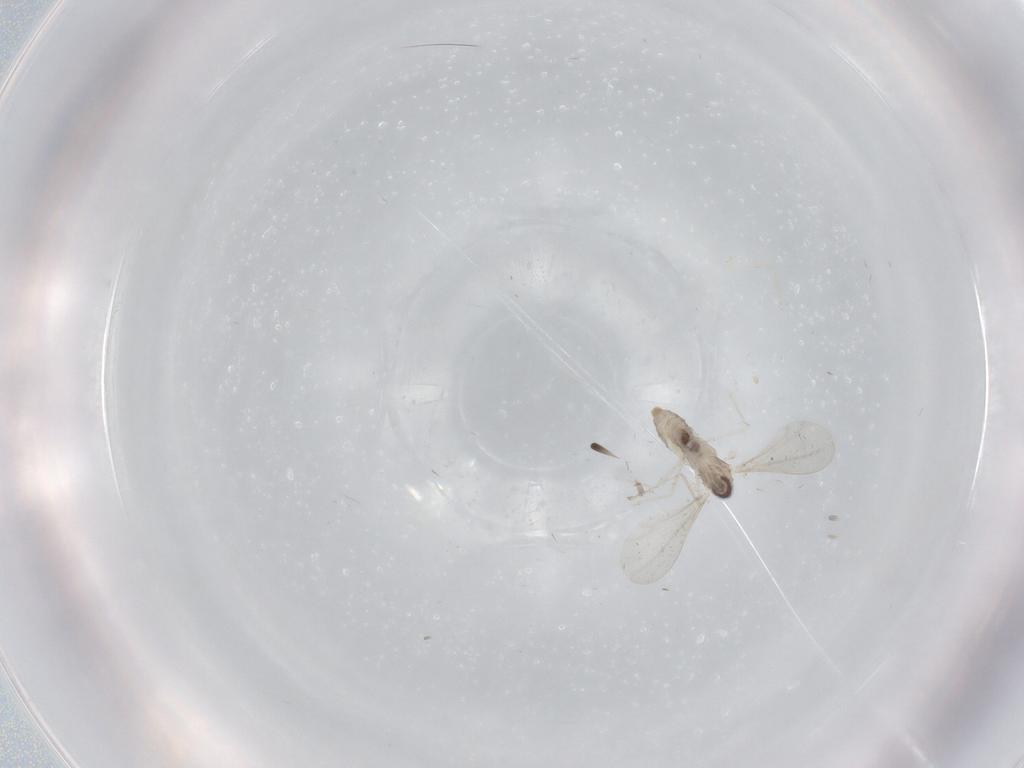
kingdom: Animalia
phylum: Arthropoda
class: Insecta
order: Diptera
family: Cecidomyiidae
